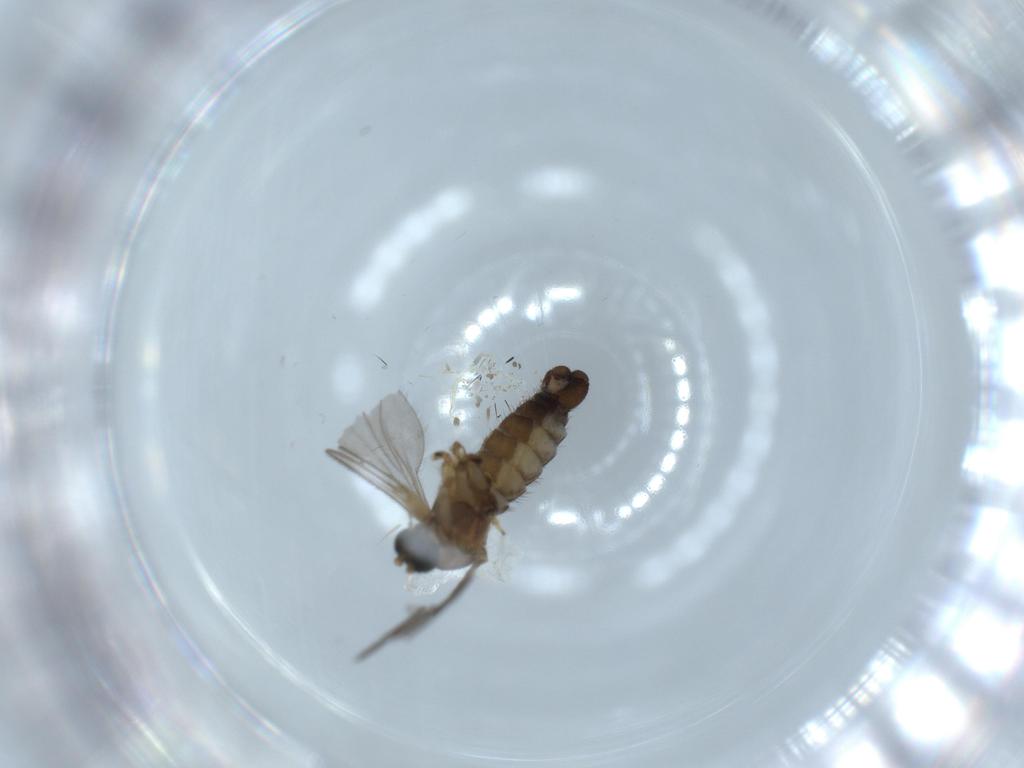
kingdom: Animalia
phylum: Arthropoda
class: Insecta
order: Diptera
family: Sciaridae
